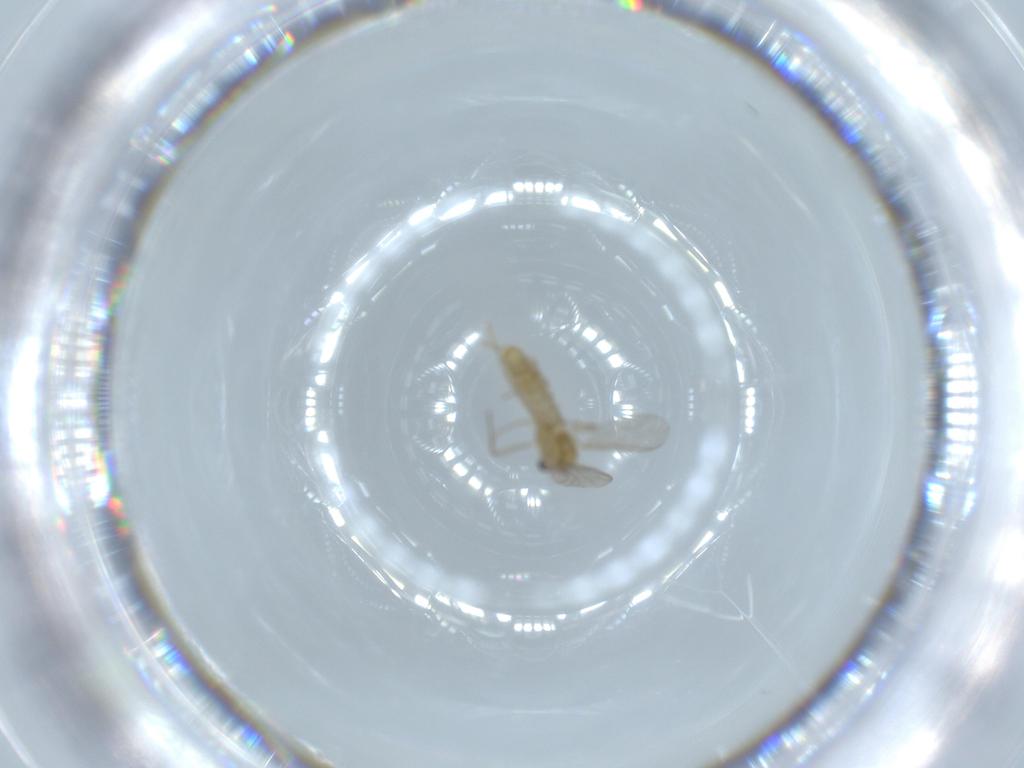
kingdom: Animalia
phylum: Arthropoda
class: Insecta
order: Diptera
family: Chironomidae
